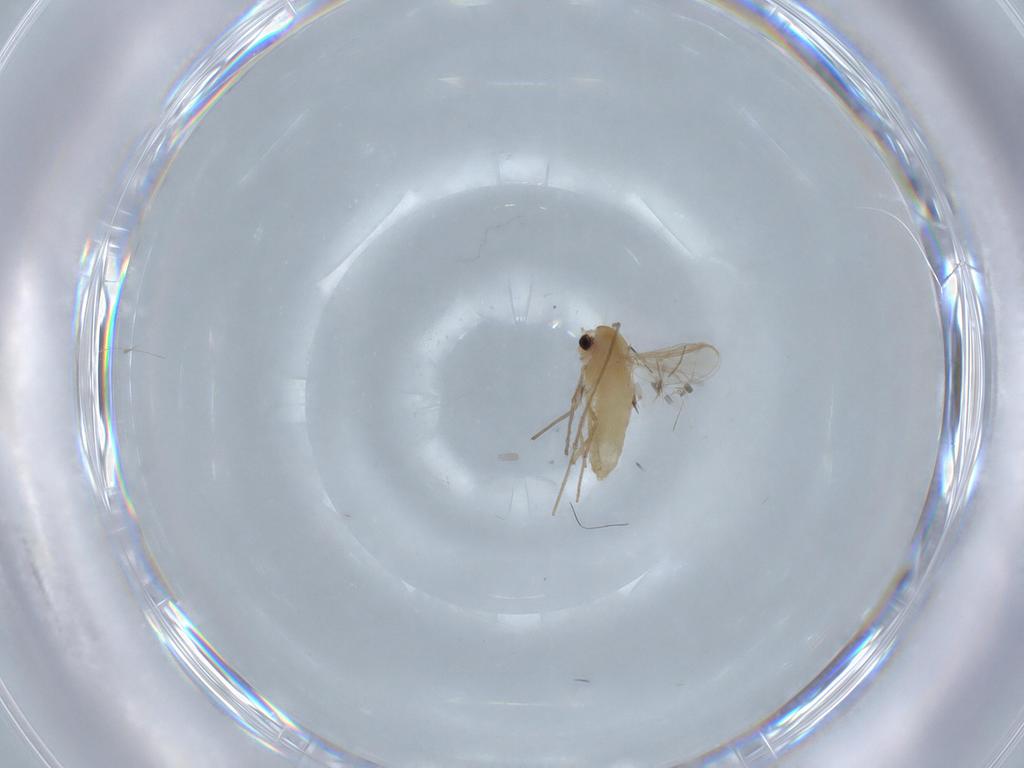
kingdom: Animalia
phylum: Arthropoda
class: Insecta
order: Diptera
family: Chironomidae
